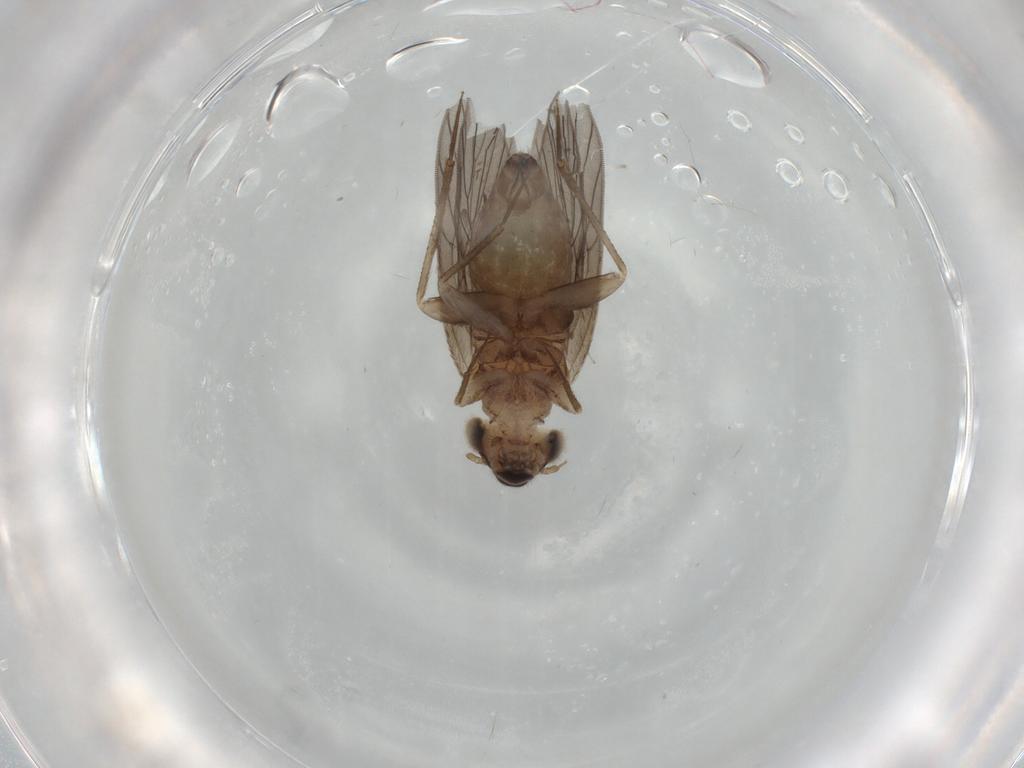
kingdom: Animalia
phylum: Arthropoda
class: Insecta
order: Psocodea
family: Lepidopsocidae
